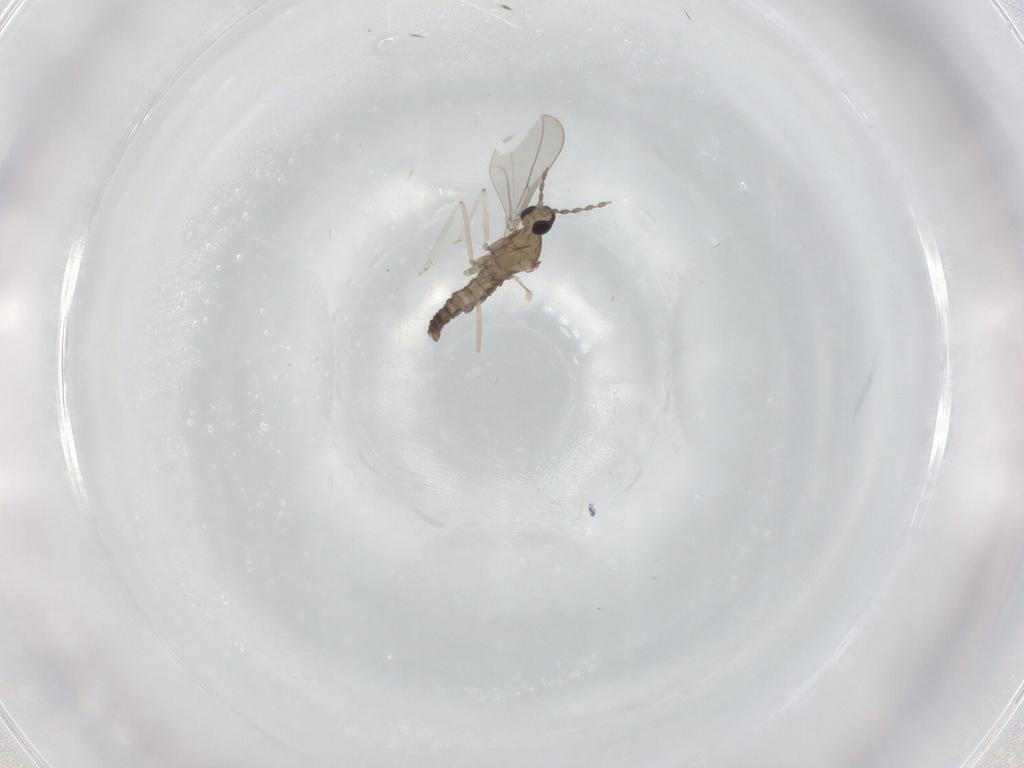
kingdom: Animalia
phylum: Arthropoda
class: Insecta
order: Diptera
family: Cecidomyiidae
